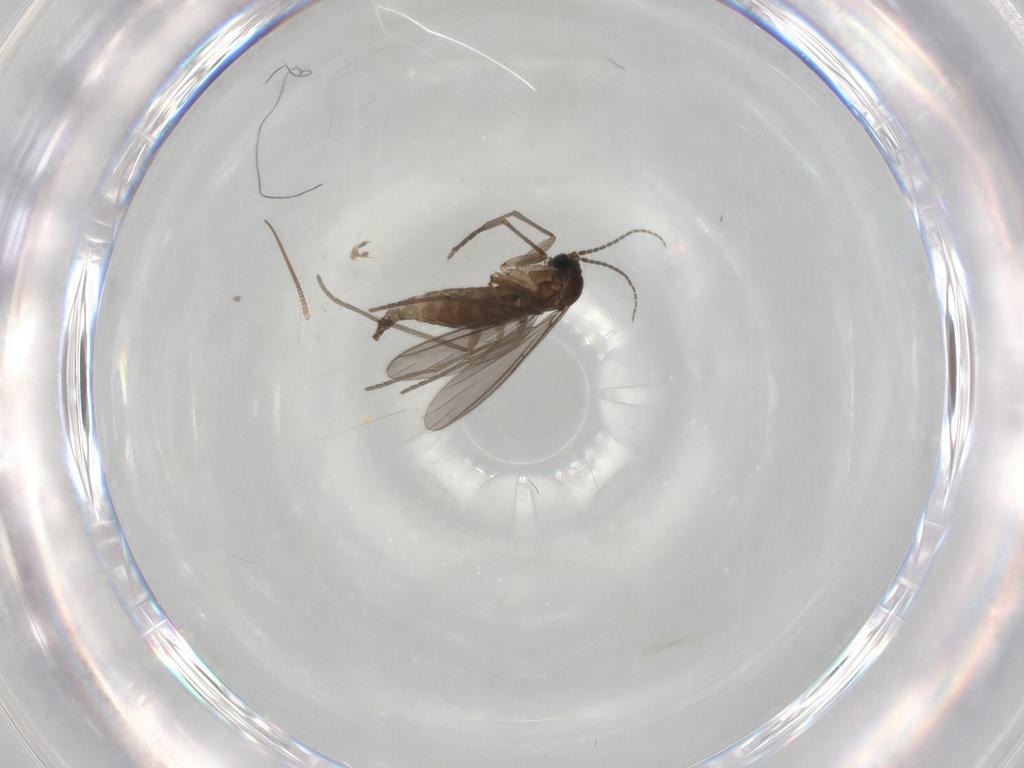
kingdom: Animalia
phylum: Arthropoda
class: Insecta
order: Diptera
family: Sciaridae
